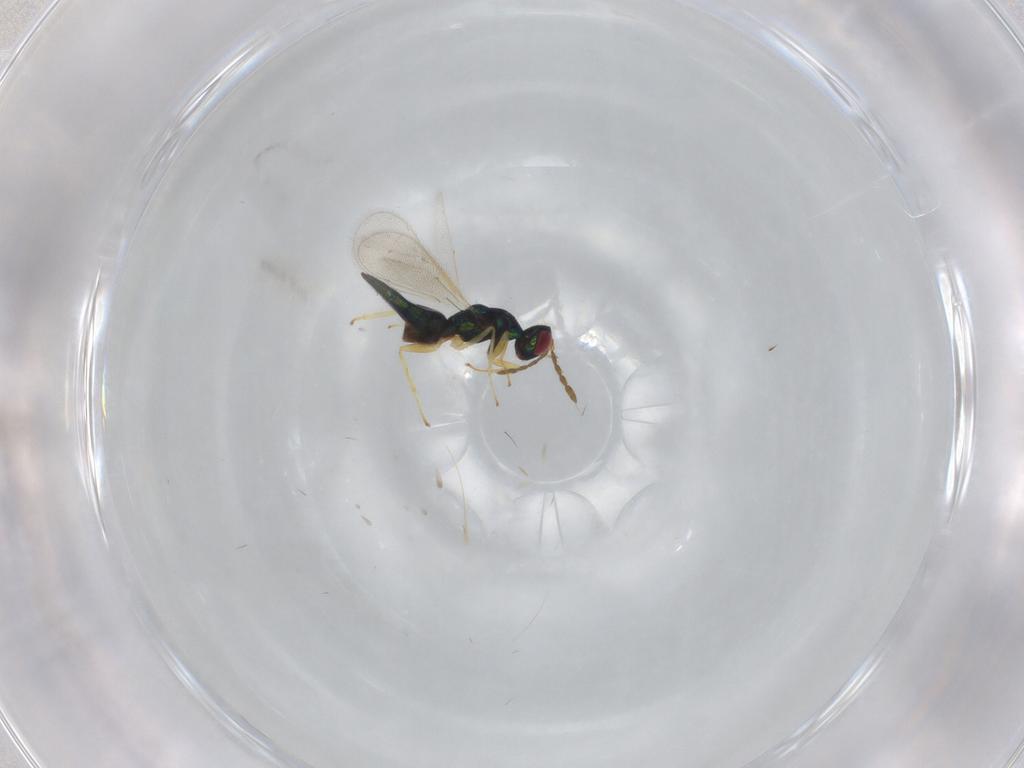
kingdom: Animalia
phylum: Arthropoda
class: Insecta
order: Hymenoptera
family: Eulophidae
